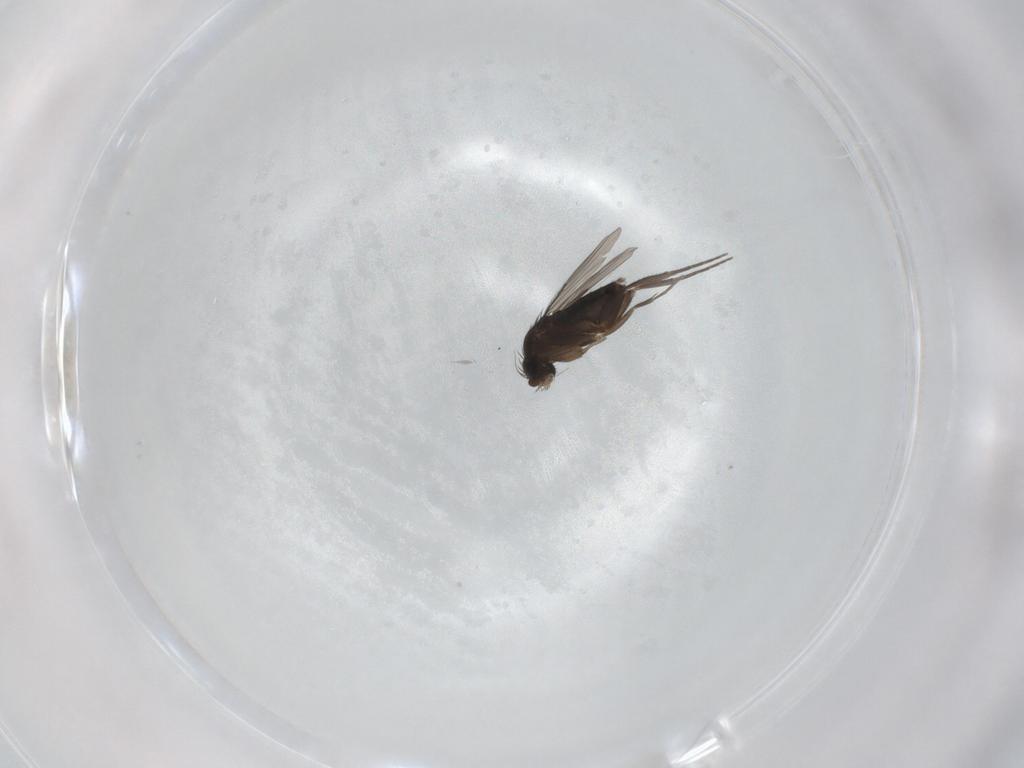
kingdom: Animalia
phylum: Arthropoda
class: Insecta
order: Diptera
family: Phoridae
